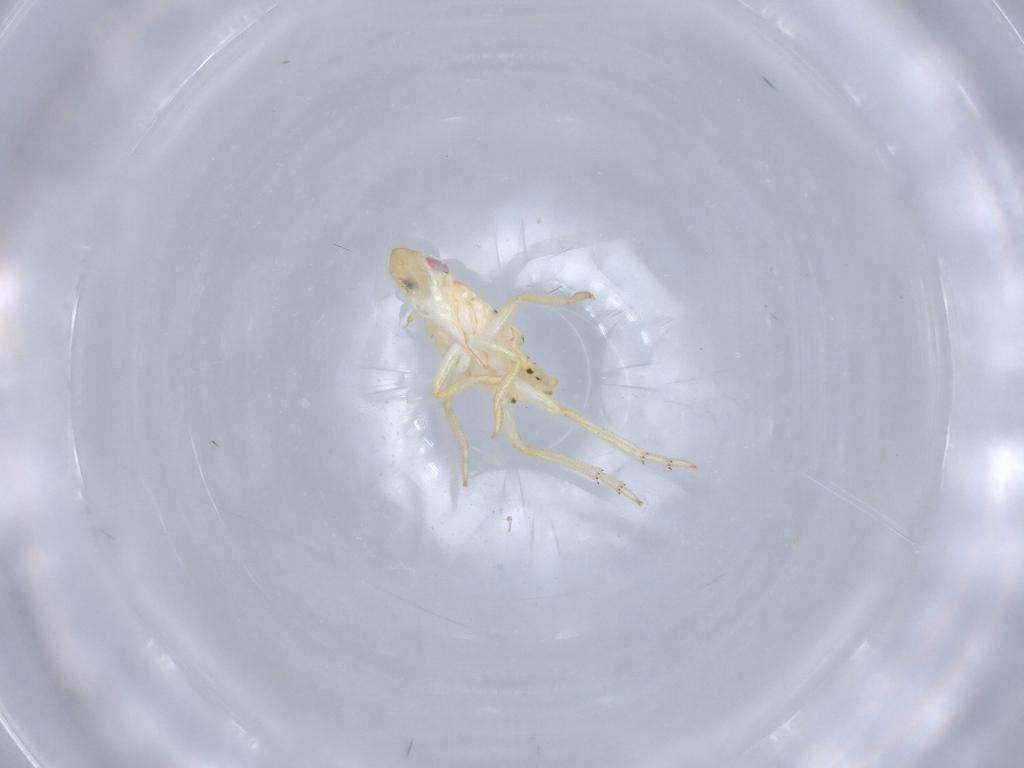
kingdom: Animalia
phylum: Arthropoda
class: Insecta
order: Hemiptera
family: Tropiduchidae
